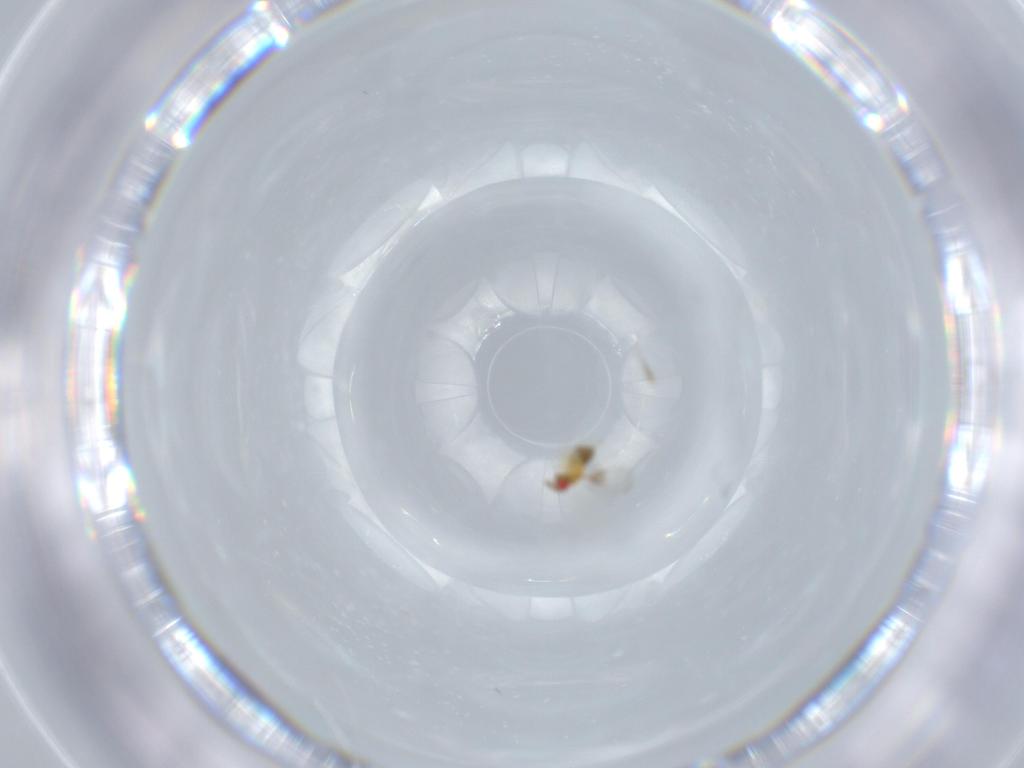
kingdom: Animalia
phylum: Arthropoda
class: Insecta
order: Hymenoptera
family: Trichogrammatidae
